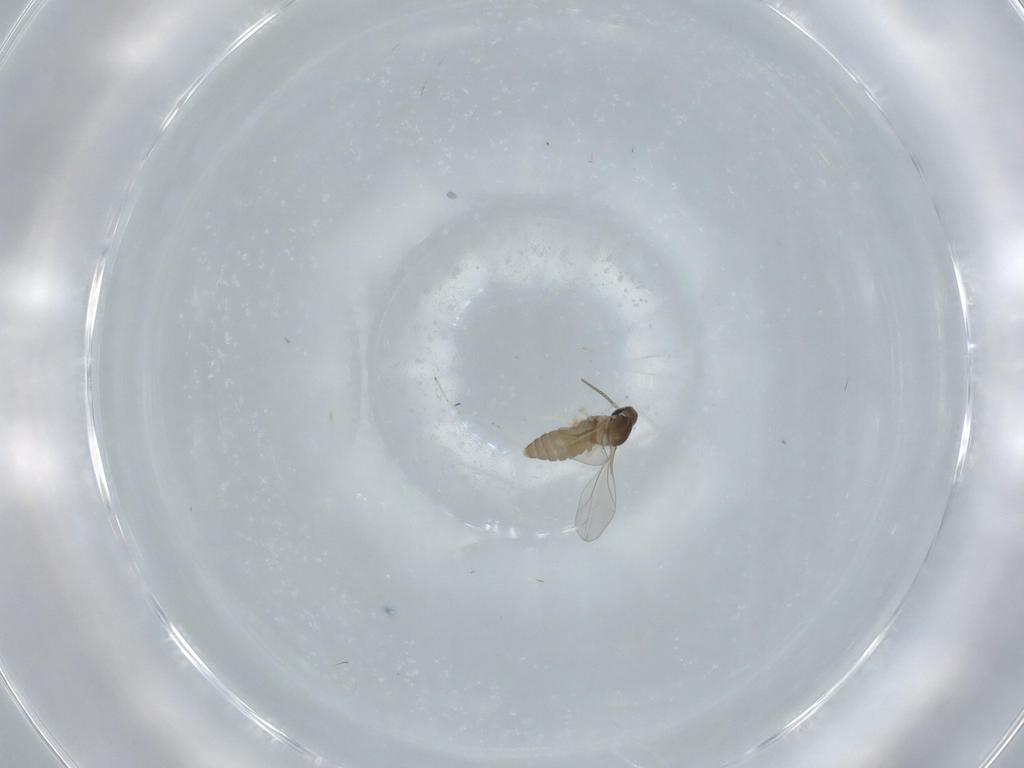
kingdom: Animalia
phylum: Arthropoda
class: Insecta
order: Diptera
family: Cecidomyiidae
